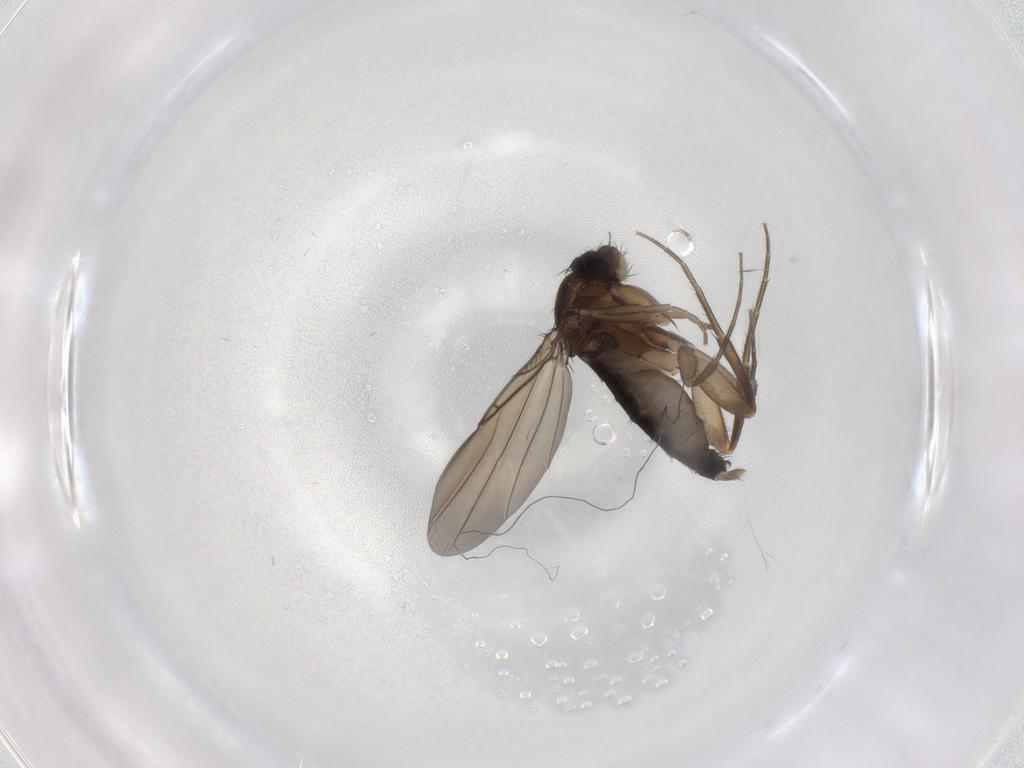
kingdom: Animalia
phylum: Arthropoda
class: Insecta
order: Diptera
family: Phoridae
